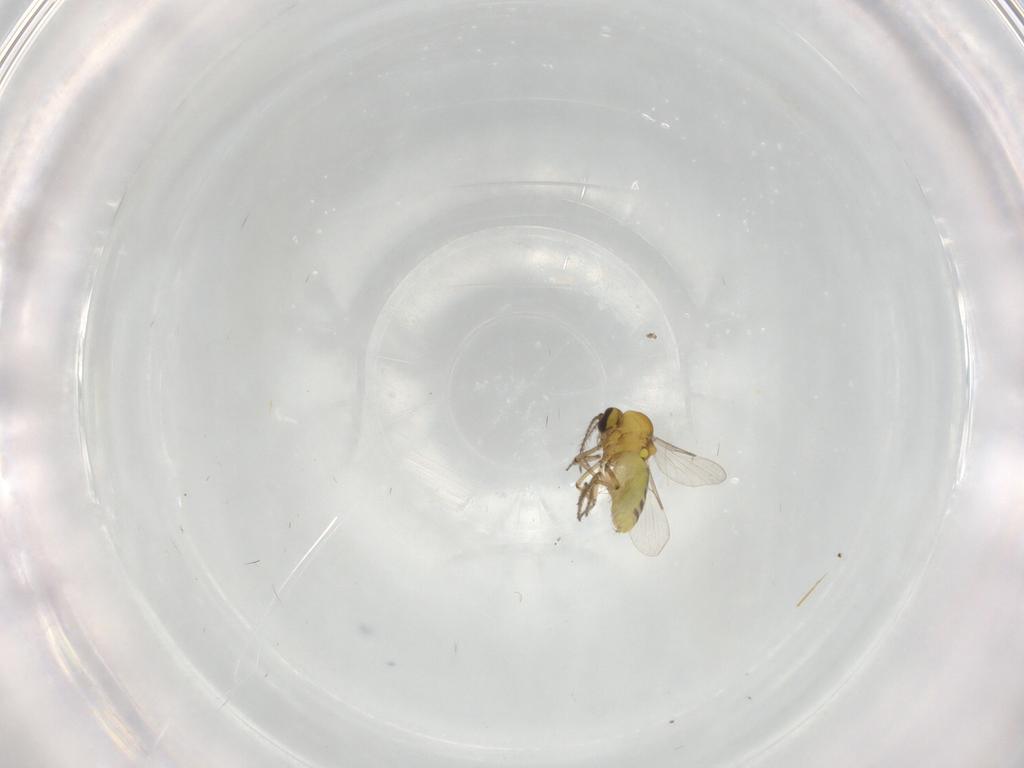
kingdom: Animalia
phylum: Arthropoda
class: Insecta
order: Diptera
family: Ceratopogonidae
